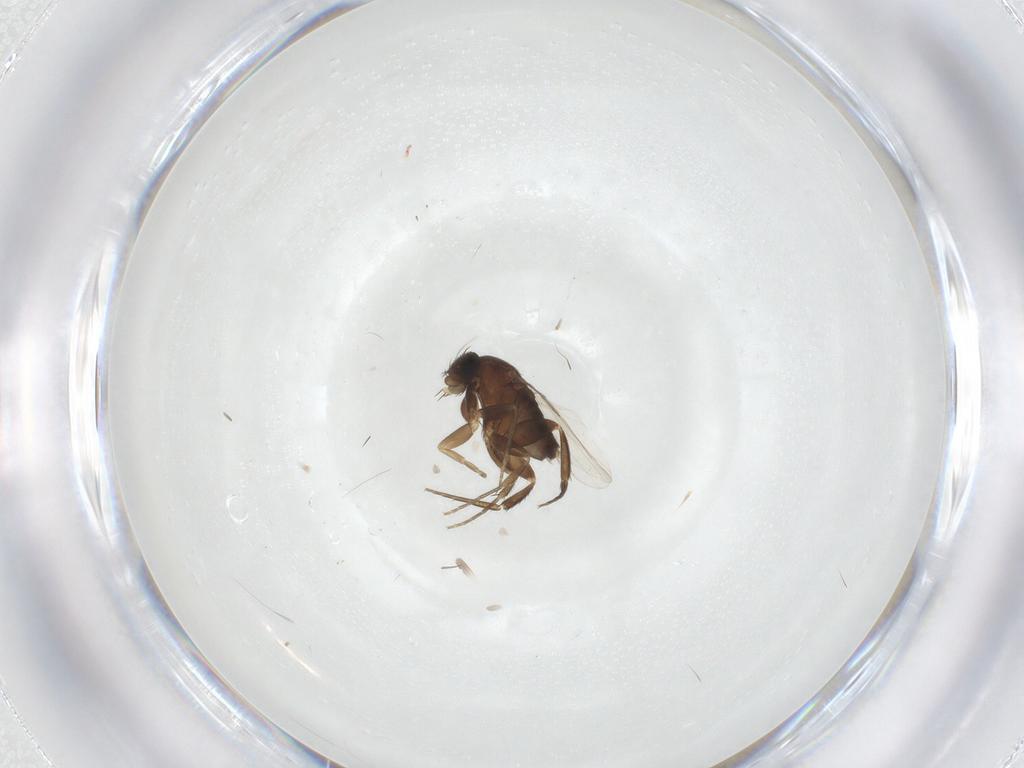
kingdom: Animalia
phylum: Arthropoda
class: Insecta
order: Diptera
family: Phoridae
